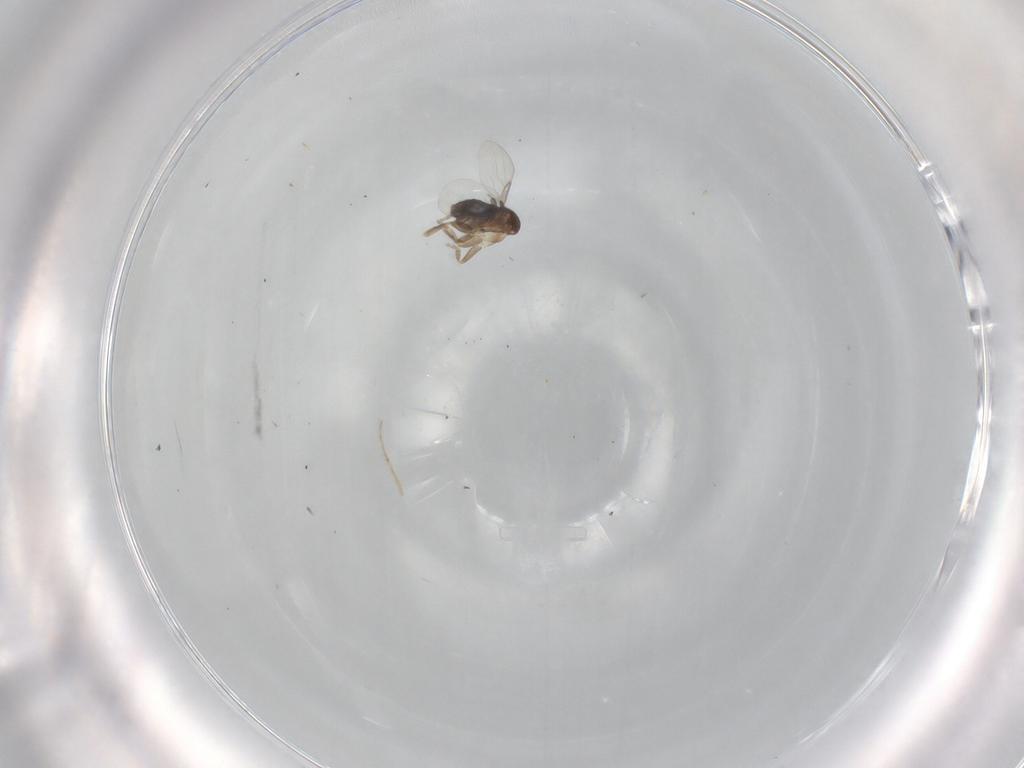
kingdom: Animalia
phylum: Arthropoda
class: Insecta
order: Diptera
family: Phoridae
